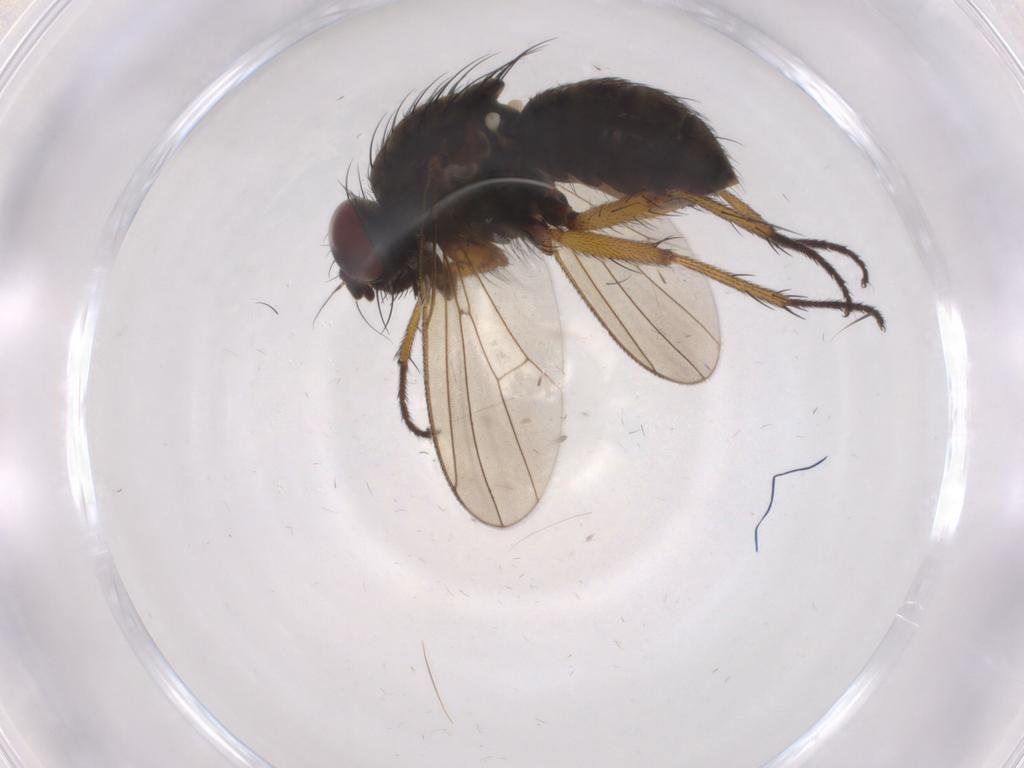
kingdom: Animalia
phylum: Arthropoda
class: Insecta
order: Diptera
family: Muscidae
